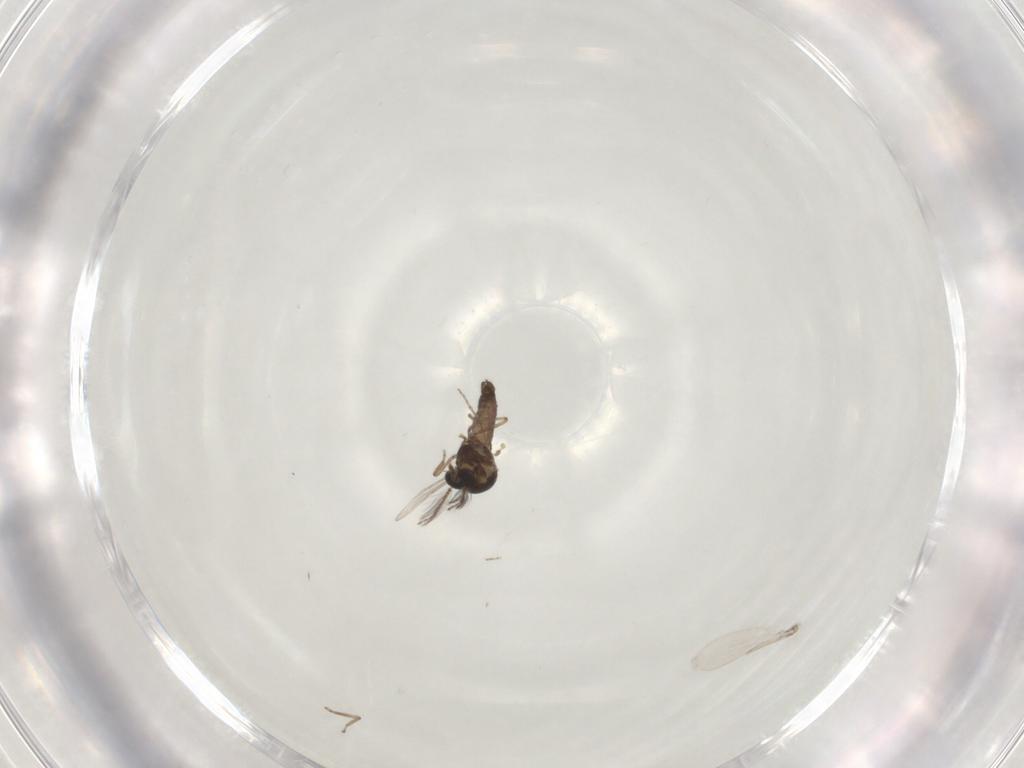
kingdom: Animalia
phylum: Arthropoda
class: Insecta
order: Diptera
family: Ceratopogonidae
